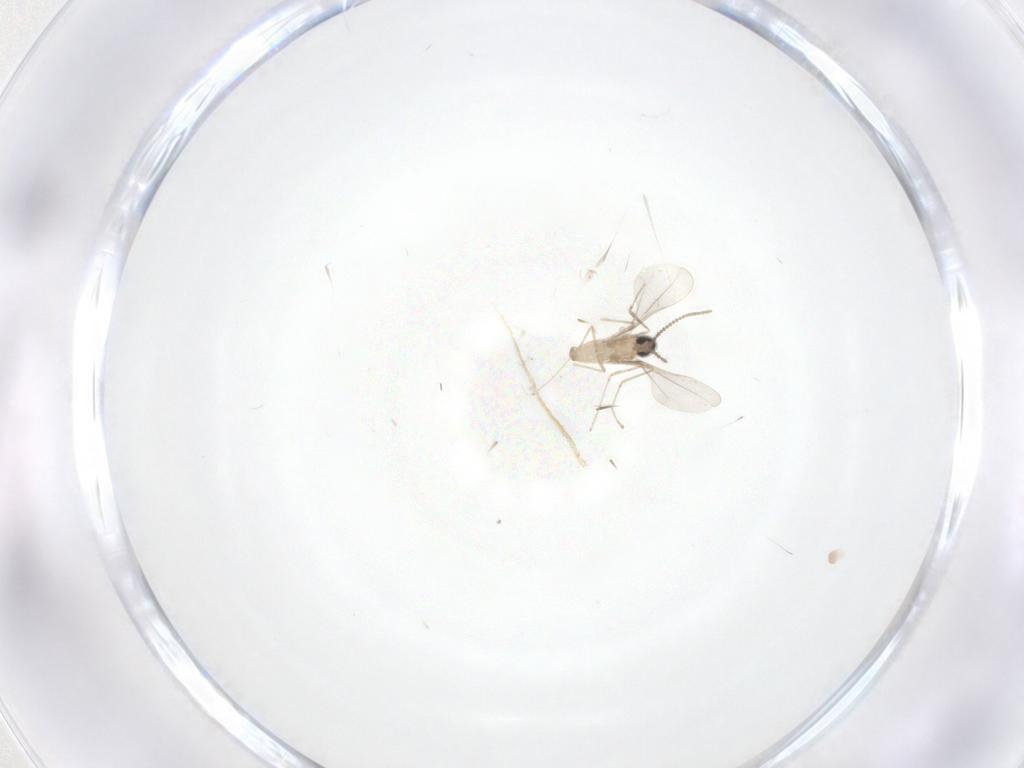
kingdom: Animalia
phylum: Arthropoda
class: Insecta
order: Diptera
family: Cecidomyiidae
